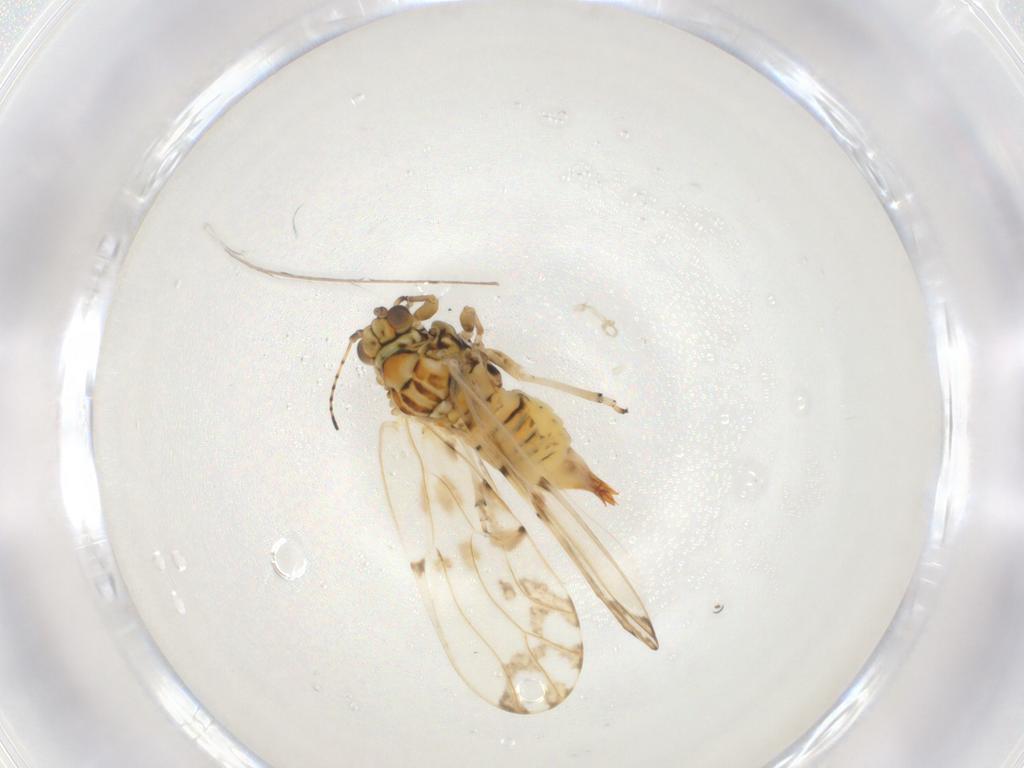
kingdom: Animalia
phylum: Arthropoda
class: Insecta
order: Hemiptera
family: Psylloidea_incertae_sedis
